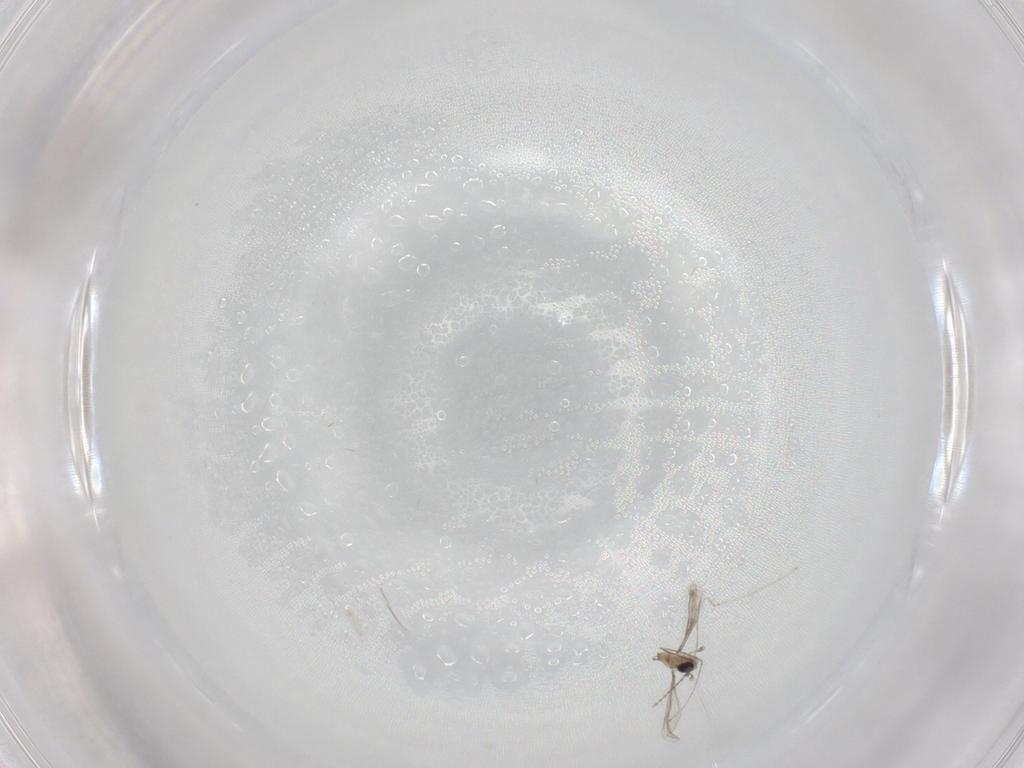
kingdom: Animalia
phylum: Arthropoda
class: Insecta
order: Diptera
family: Cecidomyiidae
